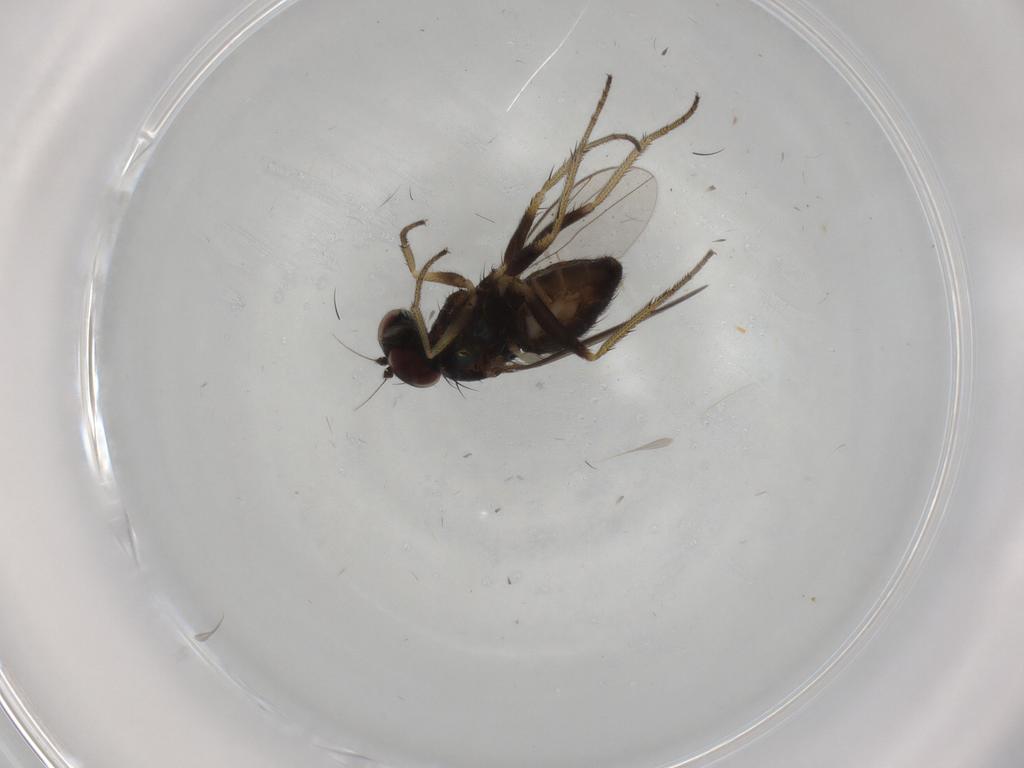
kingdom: Animalia
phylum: Arthropoda
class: Insecta
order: Diptera
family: Dolichopodidae
